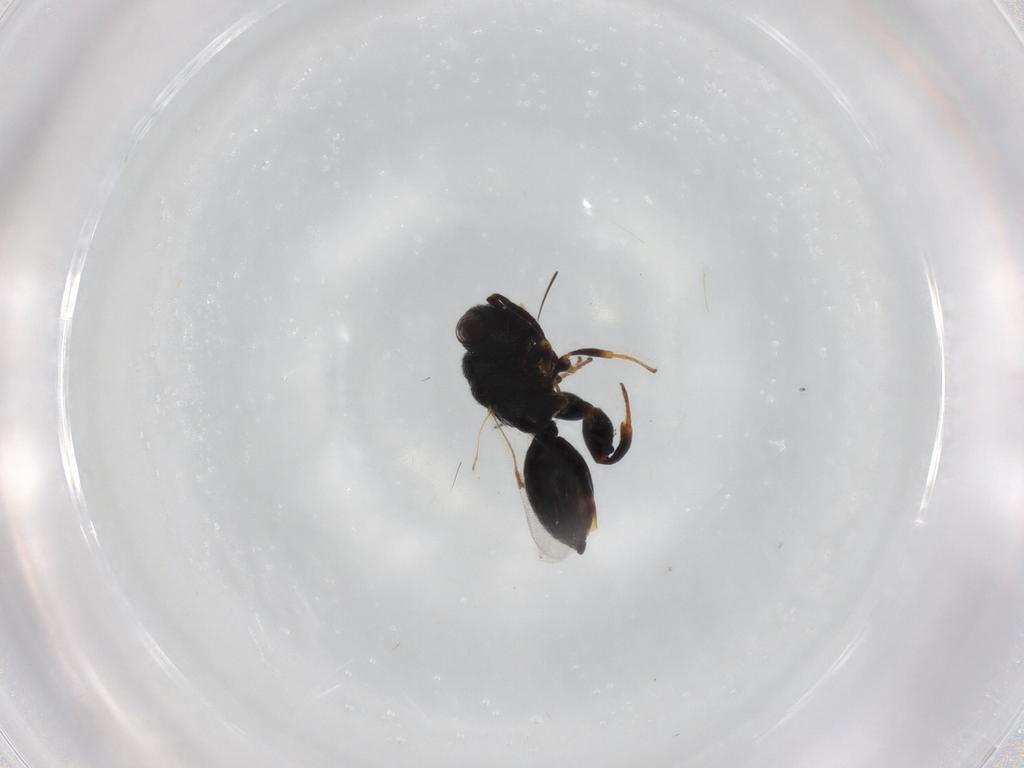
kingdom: Animalia
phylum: Arthropoda
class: Insecta
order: Hymenoptera
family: Chalcididae
